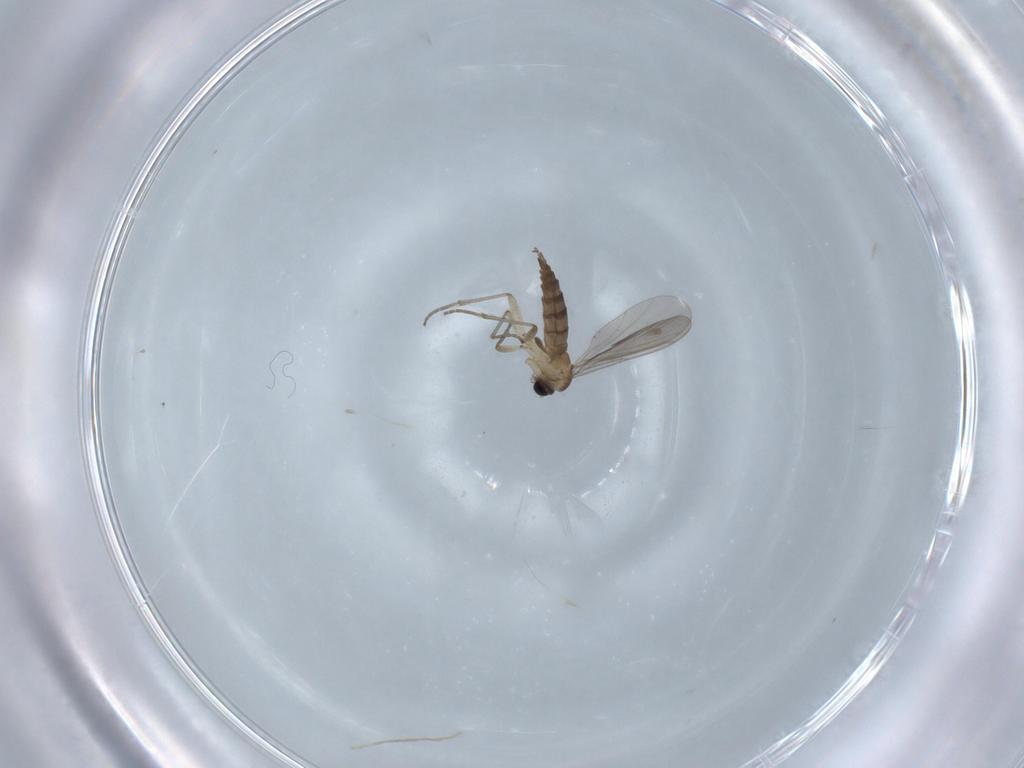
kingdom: Animalia
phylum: Arthropoda
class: Insecta
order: Diptera
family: Sciaridae
